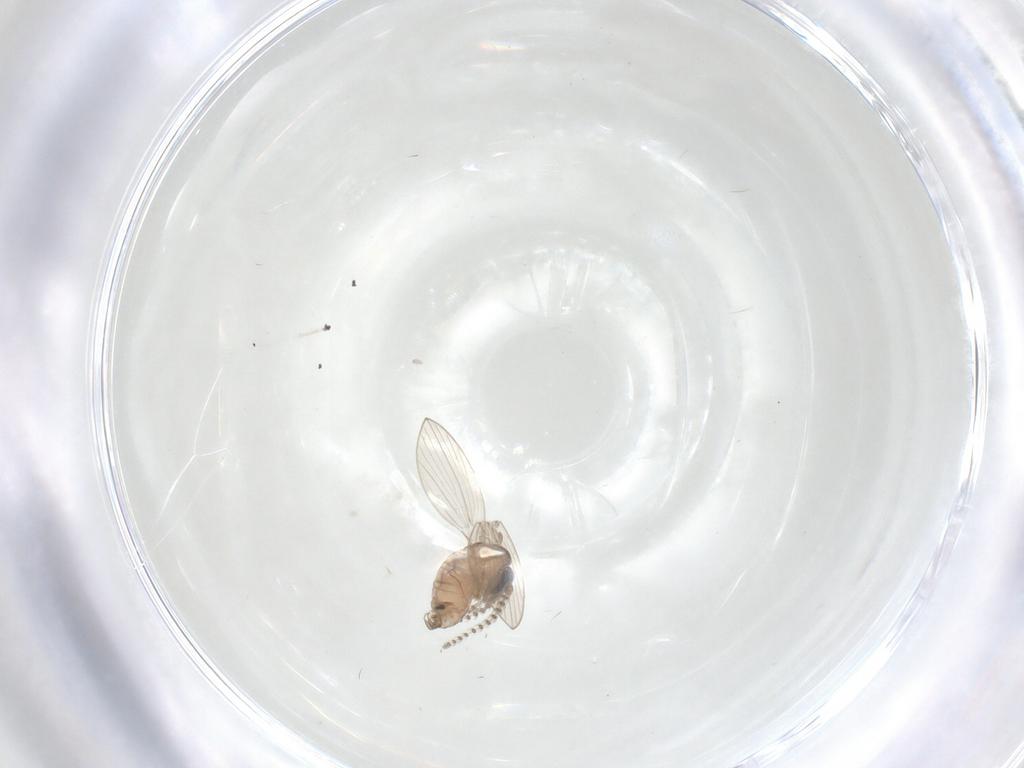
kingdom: Animalia
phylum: Arthropoda
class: Insecta
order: Diptera
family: Psychodidae
